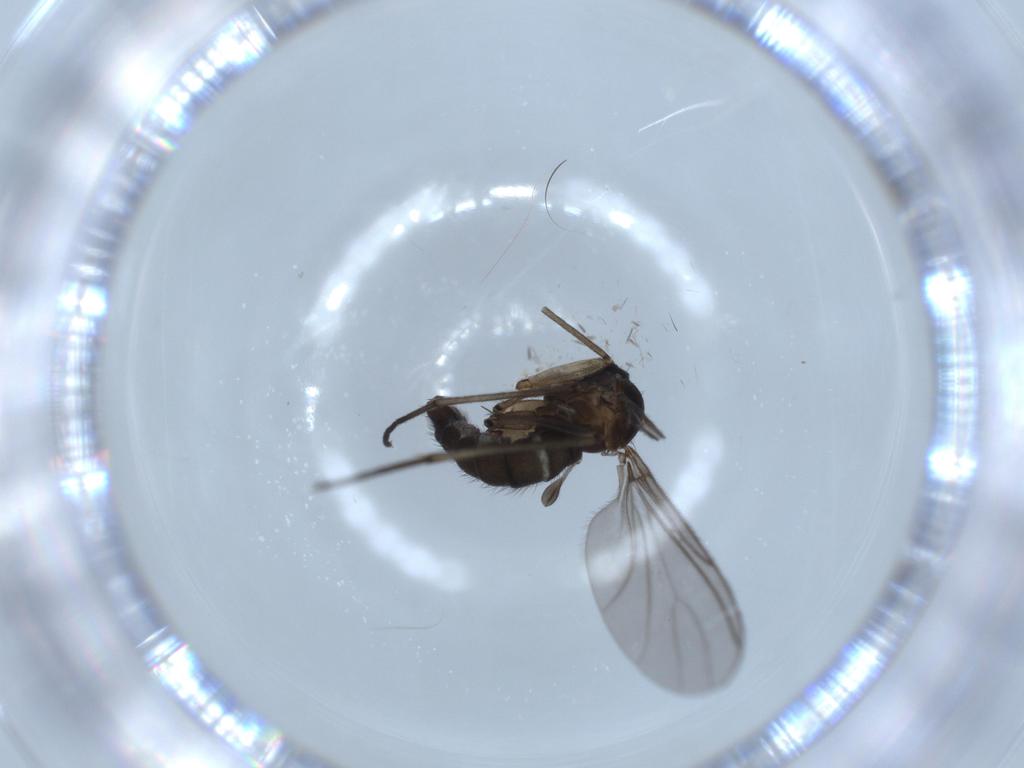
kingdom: Animalia
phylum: Arthropoda
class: Insecta
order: Diptera
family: Sciaridae
